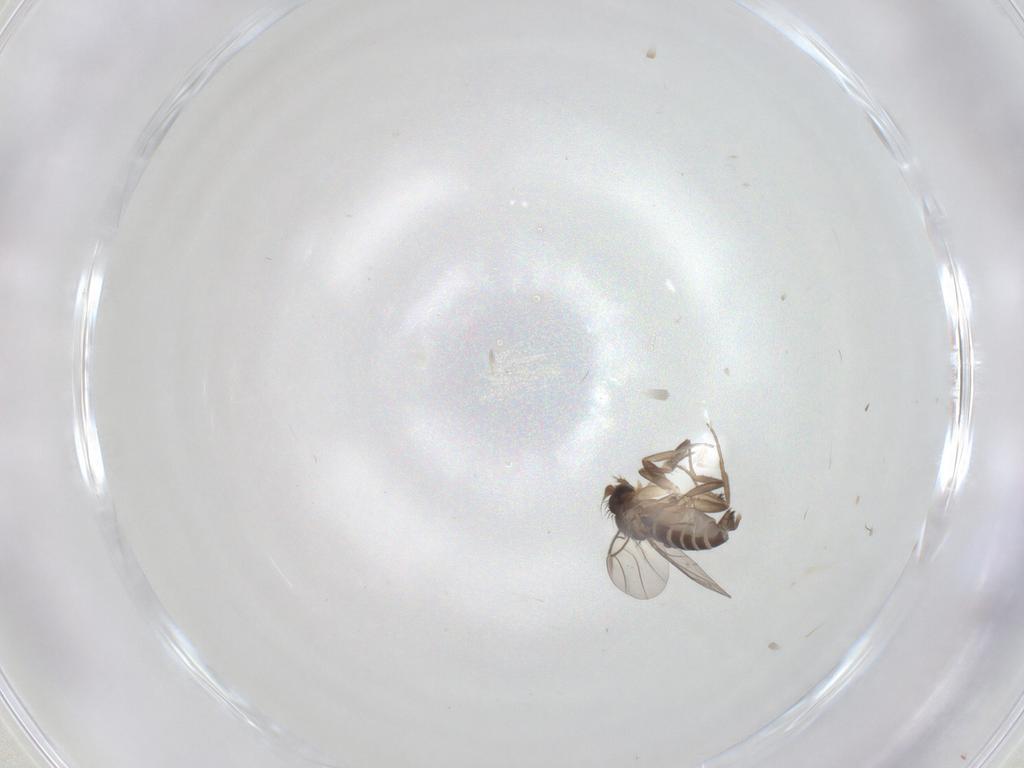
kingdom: Animalia
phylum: Arthropoda
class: Insecta
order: Diptera
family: Phoridae
